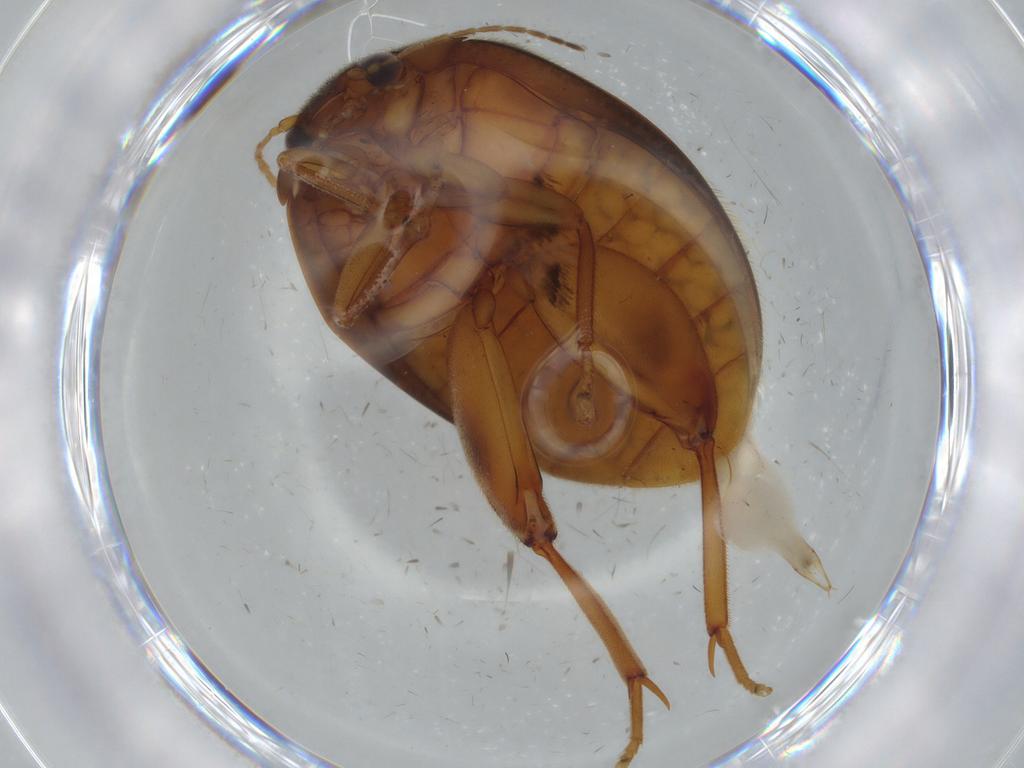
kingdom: Animalia
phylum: Arthropoda
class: Insecta
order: Coleoptera
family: Scirtidae
